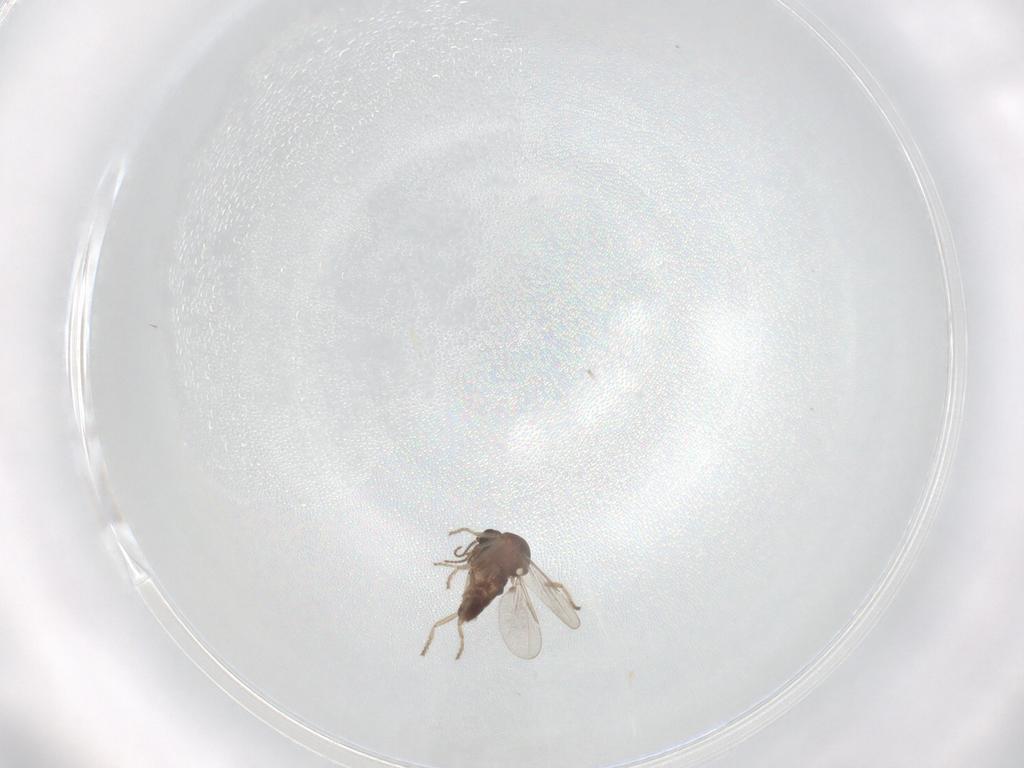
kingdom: Animalia
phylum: Arthropoda
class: Insecta
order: Diptera
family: Ceratopogonidae
